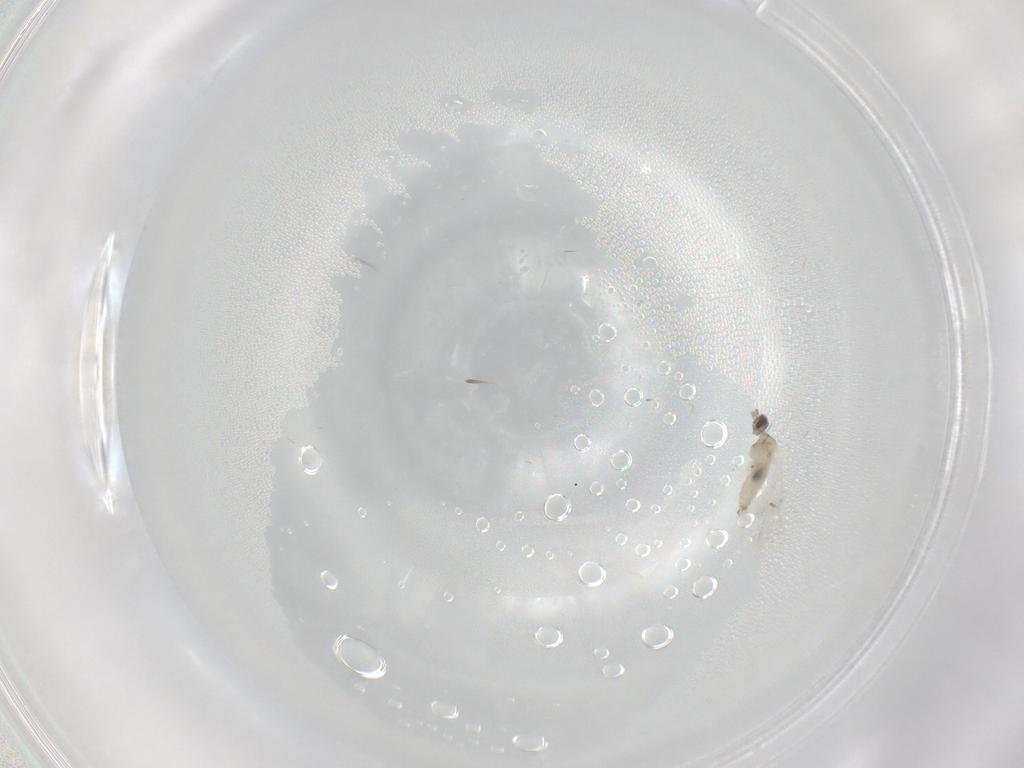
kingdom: Animalia
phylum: Arthropoda
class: Insecta
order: Diptera
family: Cecidomyiidae
